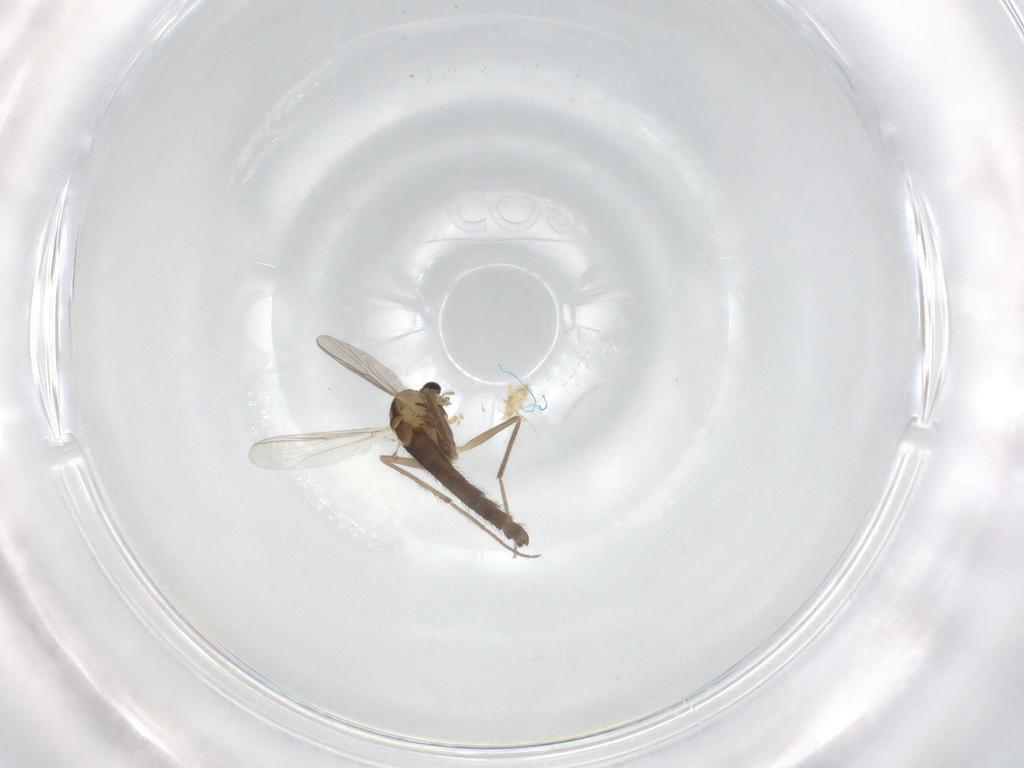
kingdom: Animalia
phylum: Arthropoda
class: Insecta
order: Diptera
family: Chironomidae
